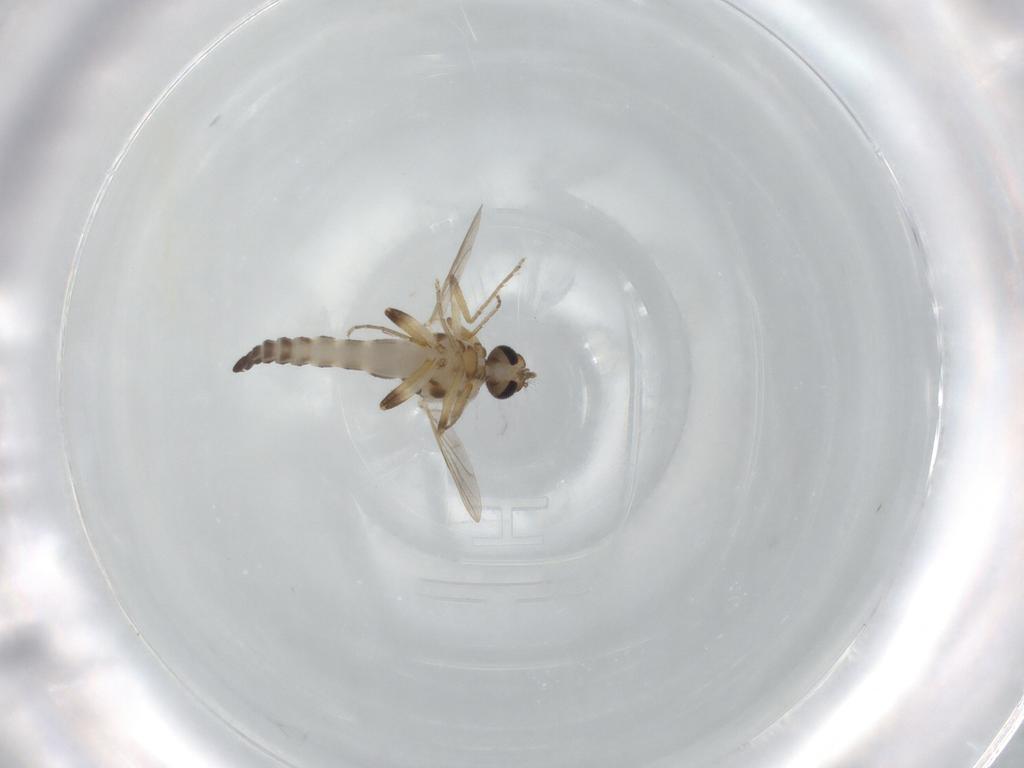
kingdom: Animalia
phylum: Arthropoda
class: Insecta
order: Diptera
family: Ceratopogonidae
